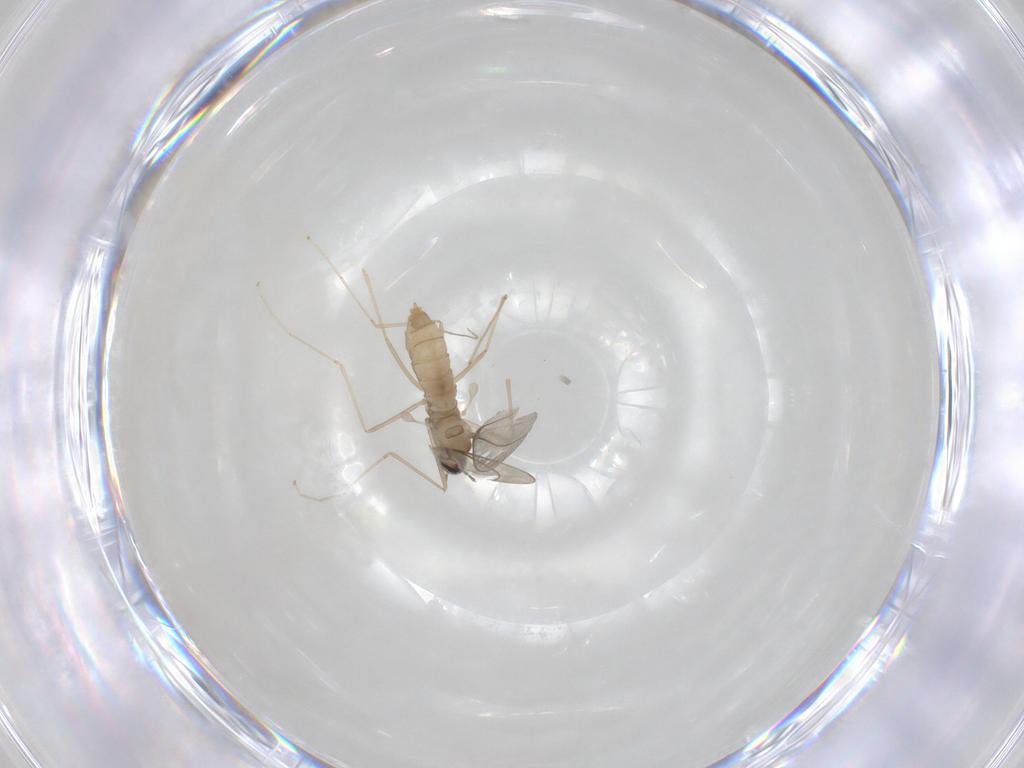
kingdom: Animalia
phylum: Arthropoda
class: Insecta
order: Diptera
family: Cecidomyiidae
